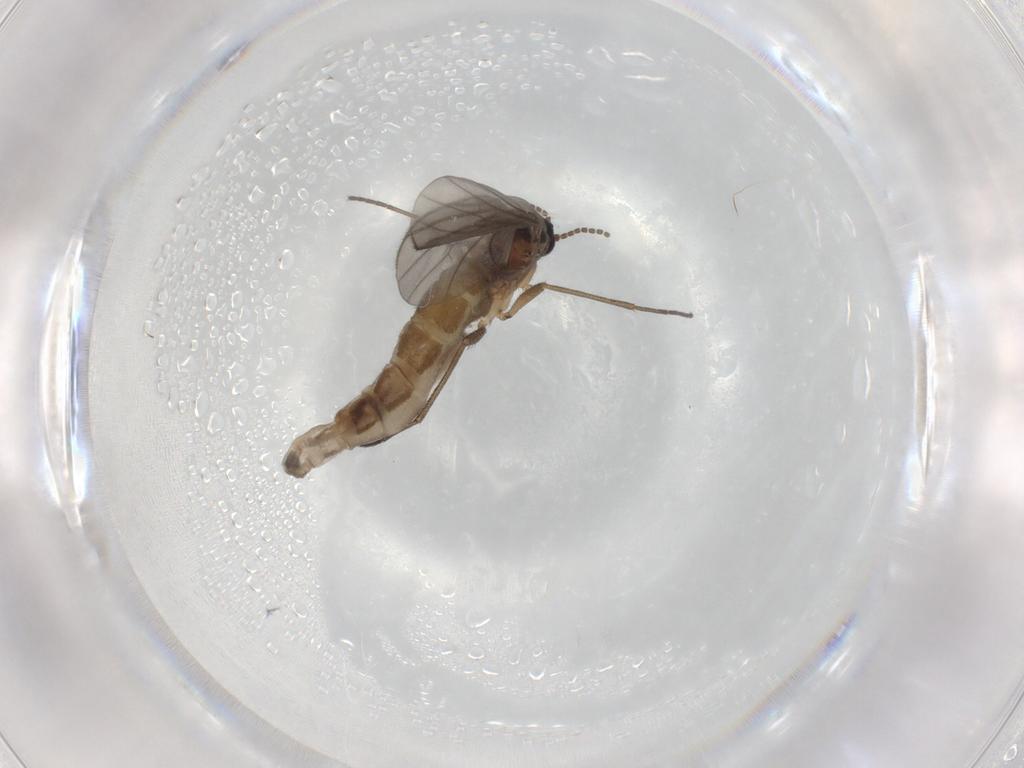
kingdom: Animalia
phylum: Arthropoda
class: Insecta
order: Diptera
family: Sciaridae
